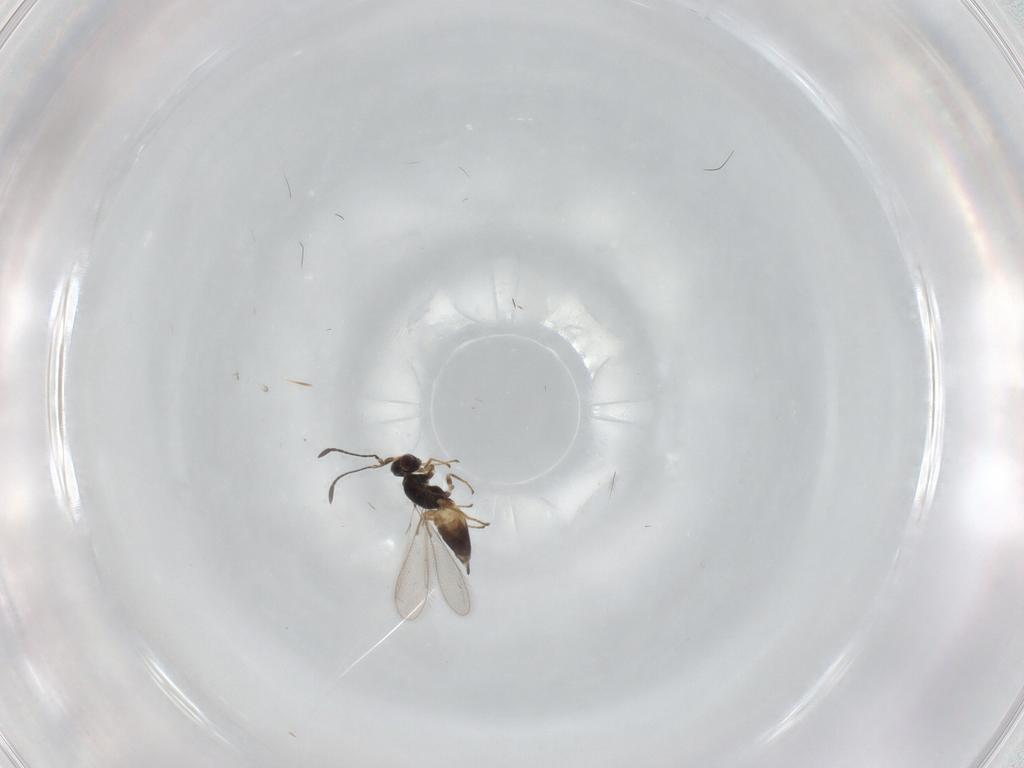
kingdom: Animalia
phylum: Arthropoda
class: Insecta
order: Hymenoptera
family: Mymaridae
